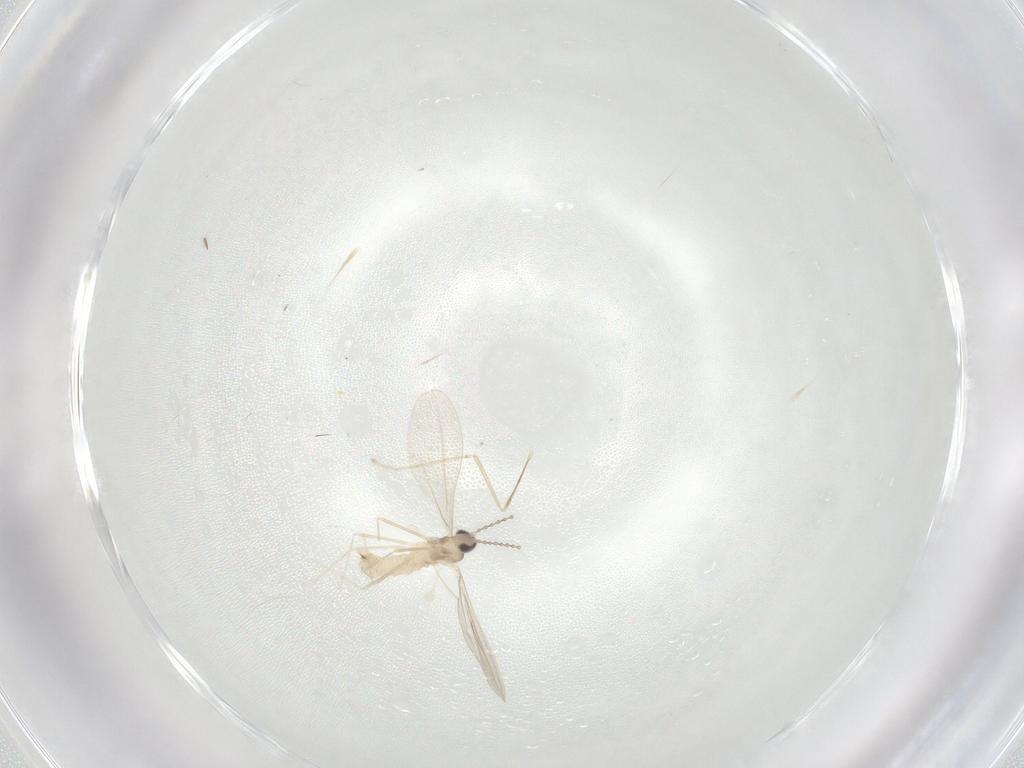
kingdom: Animalia
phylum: Arthropoda
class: Insecta
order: Diptera
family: Cecidomyiidae
